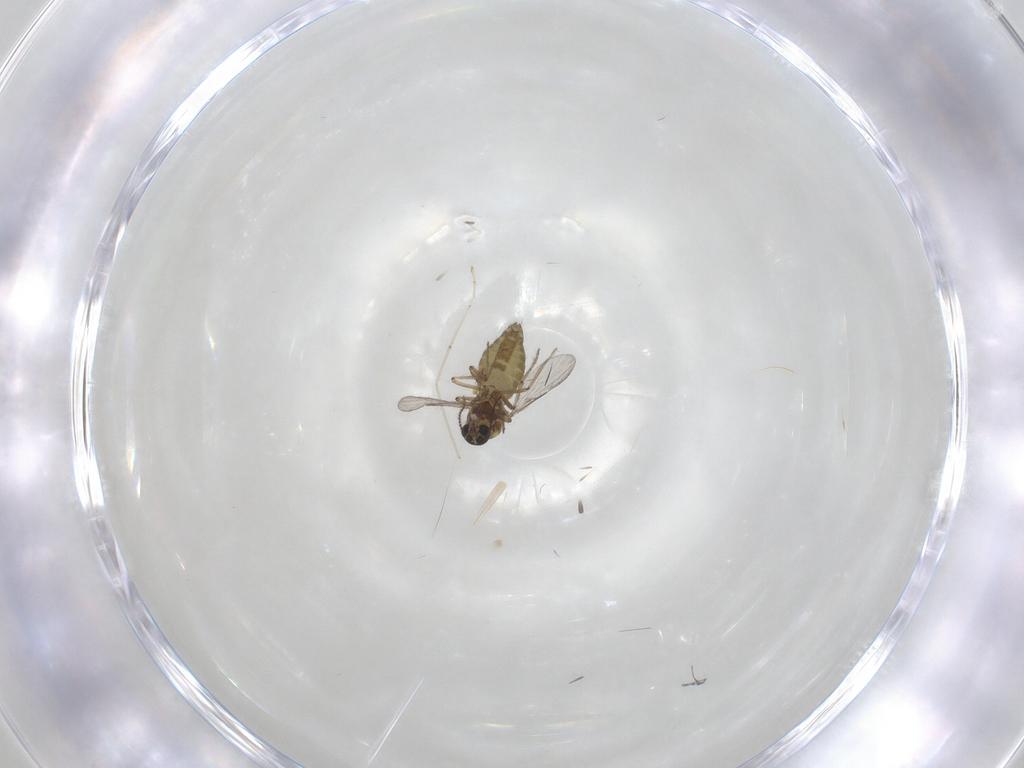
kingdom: Animalia
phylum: Arthropoda
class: Insecta
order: Diptera
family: Ceratopogonidae
